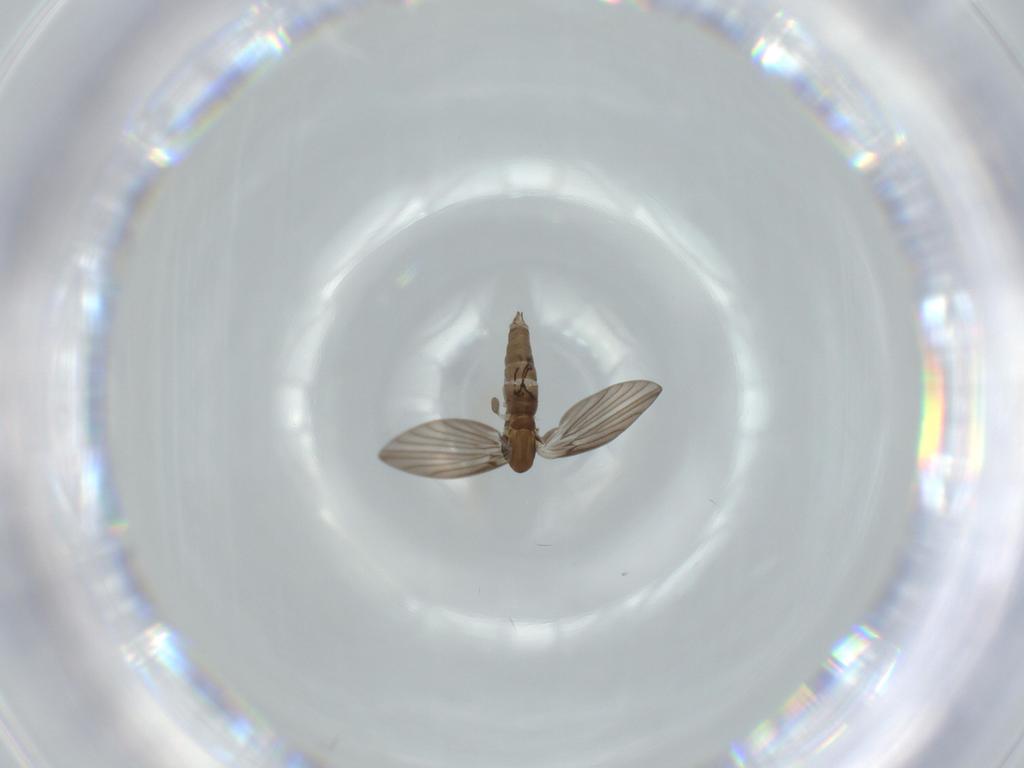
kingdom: Animalia
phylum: Arthropoda
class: Insecta
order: Diptera
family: Psychodidae
